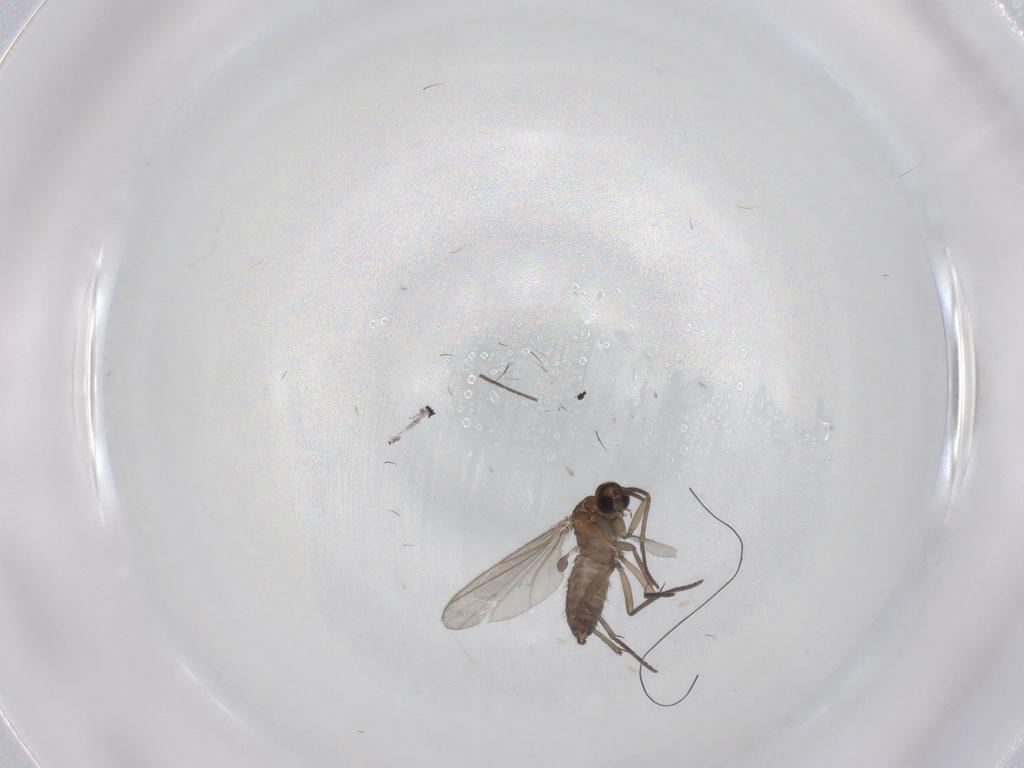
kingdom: Animalia
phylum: Arthropoda
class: Insecta
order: Diptera
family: Sciaridae
